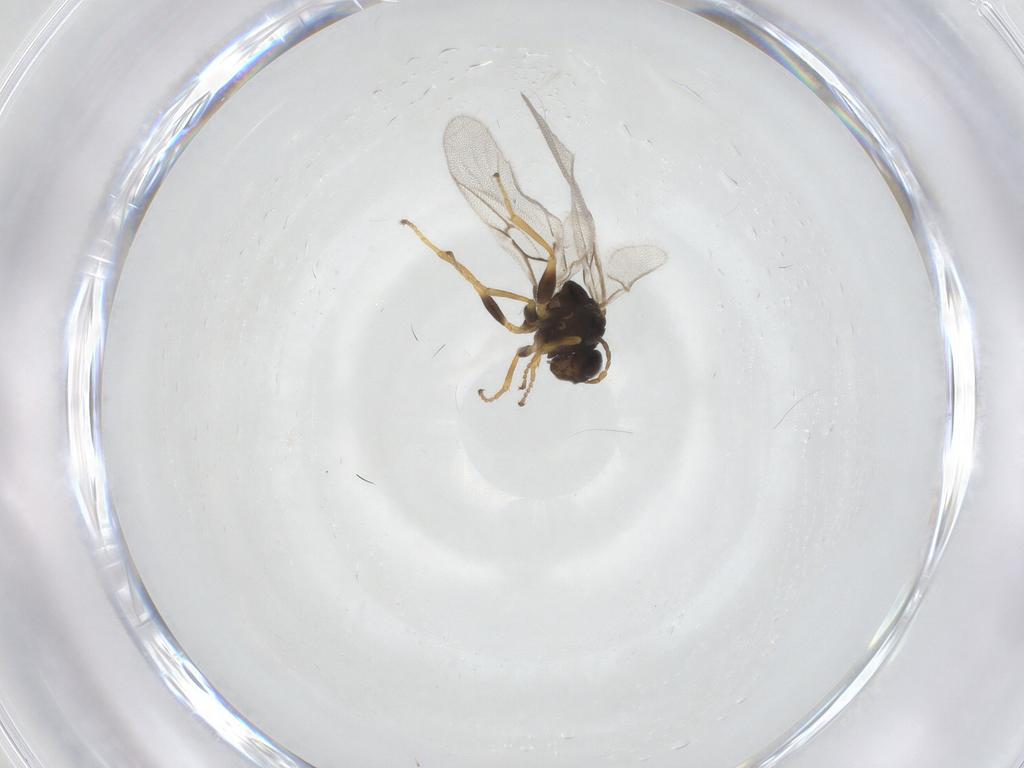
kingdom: Animalia
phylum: Arthropoda
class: Insecta
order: Hymenoptera
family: Cynipidae
